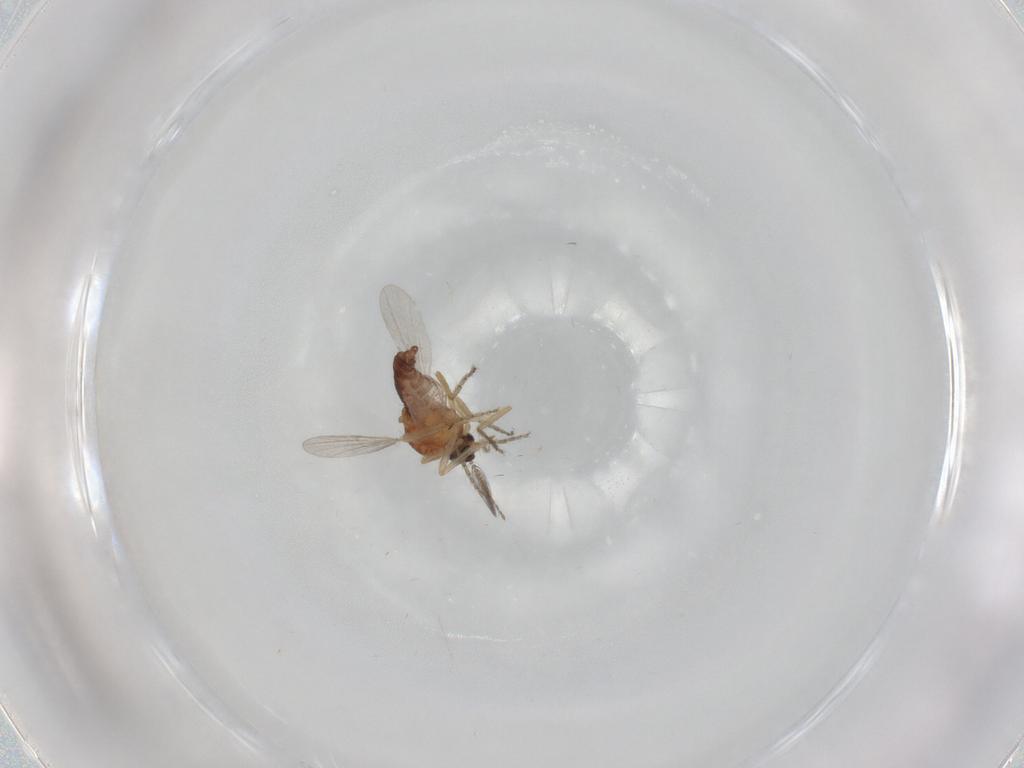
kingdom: Animalia
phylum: Arthropoda
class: Insecta
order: Diptera
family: Ceratopogonidae
